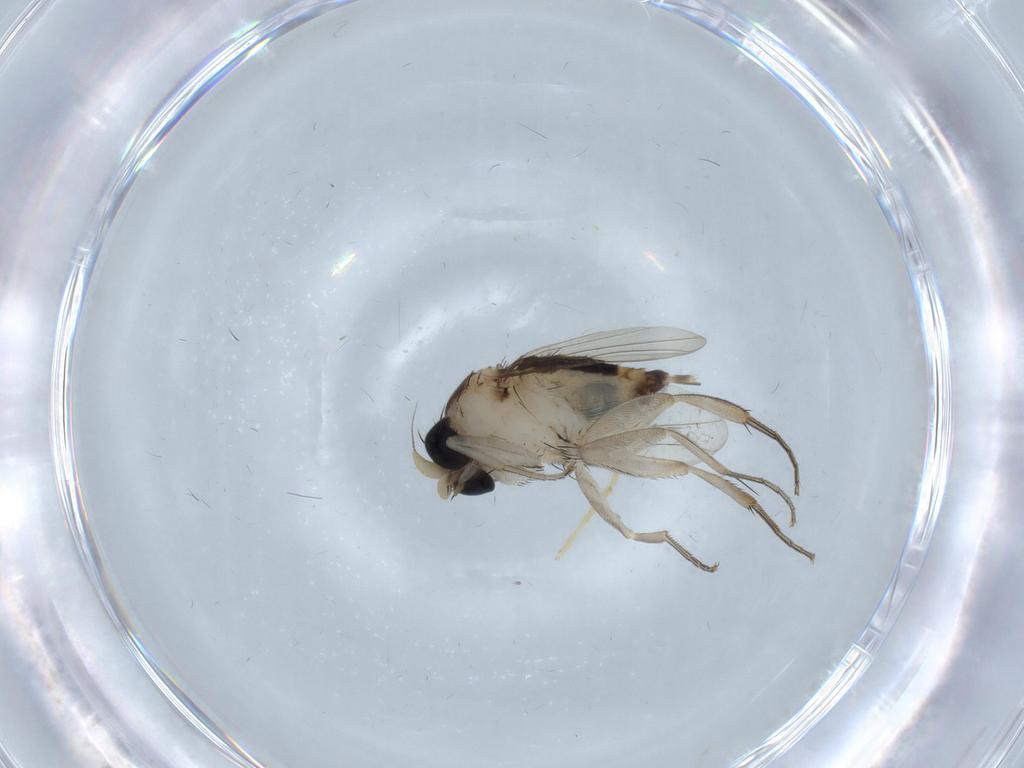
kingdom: Animalia
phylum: Arthropoda
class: Insecta
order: Diptera
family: Phoridae
